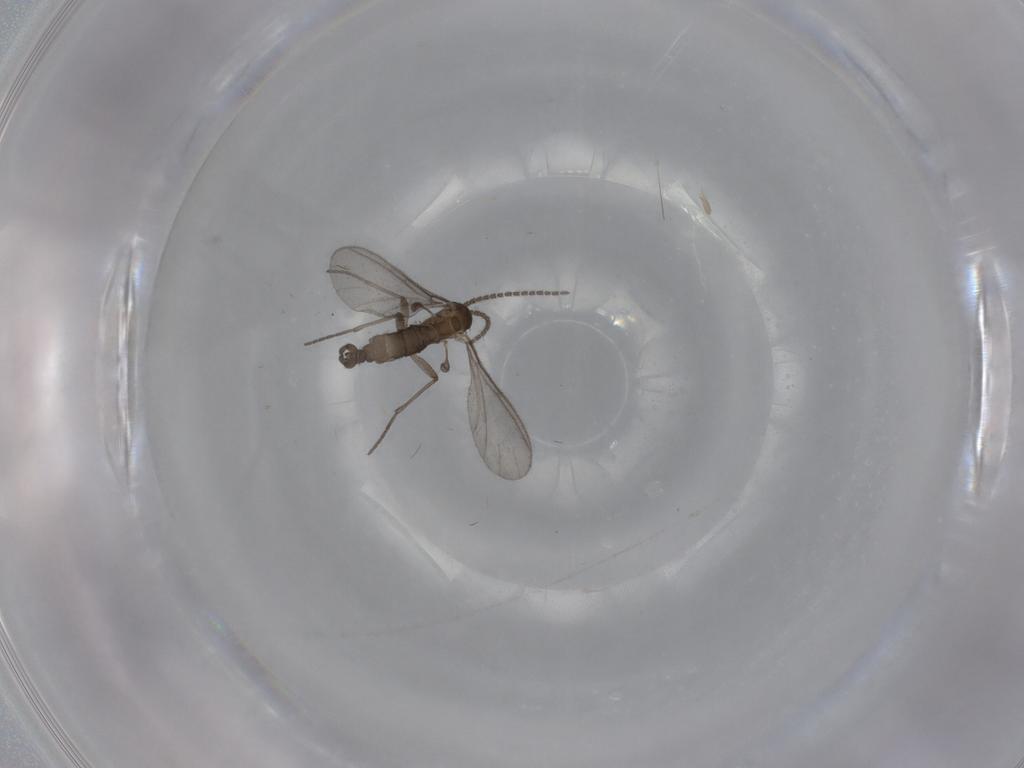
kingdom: Animalia
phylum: Arthropoda
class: Insecta
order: Diptera
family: Sciaridae
